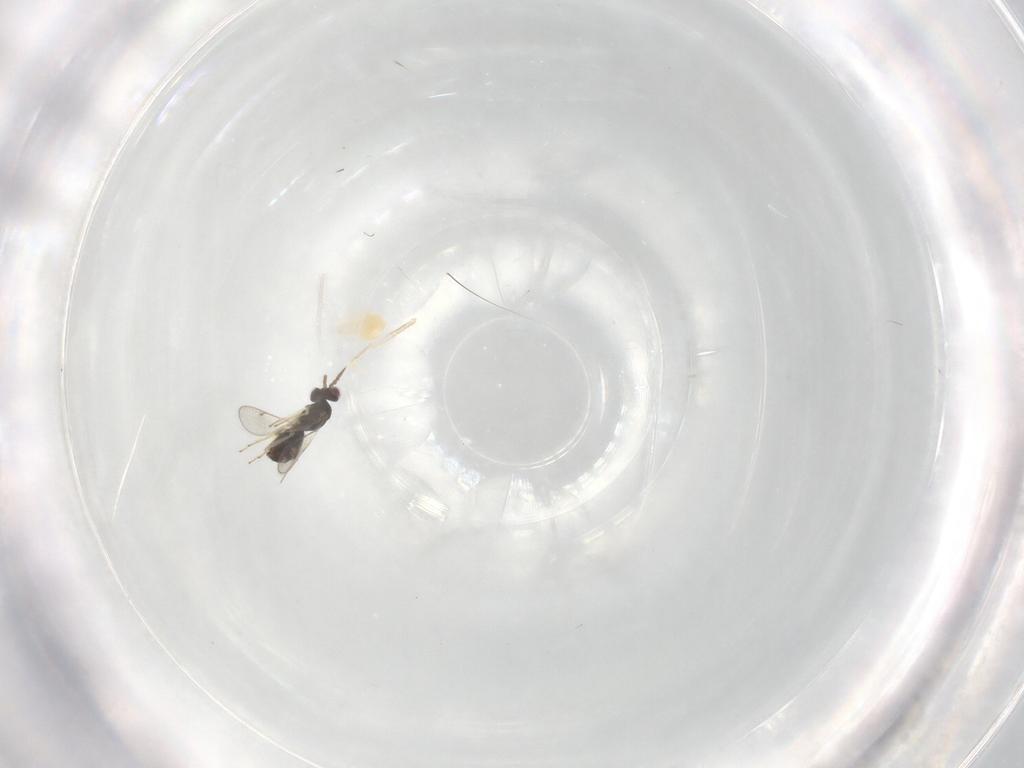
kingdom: Animalia
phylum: Arthropoda
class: Insecta
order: Hymenoptera
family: Eulophidae
